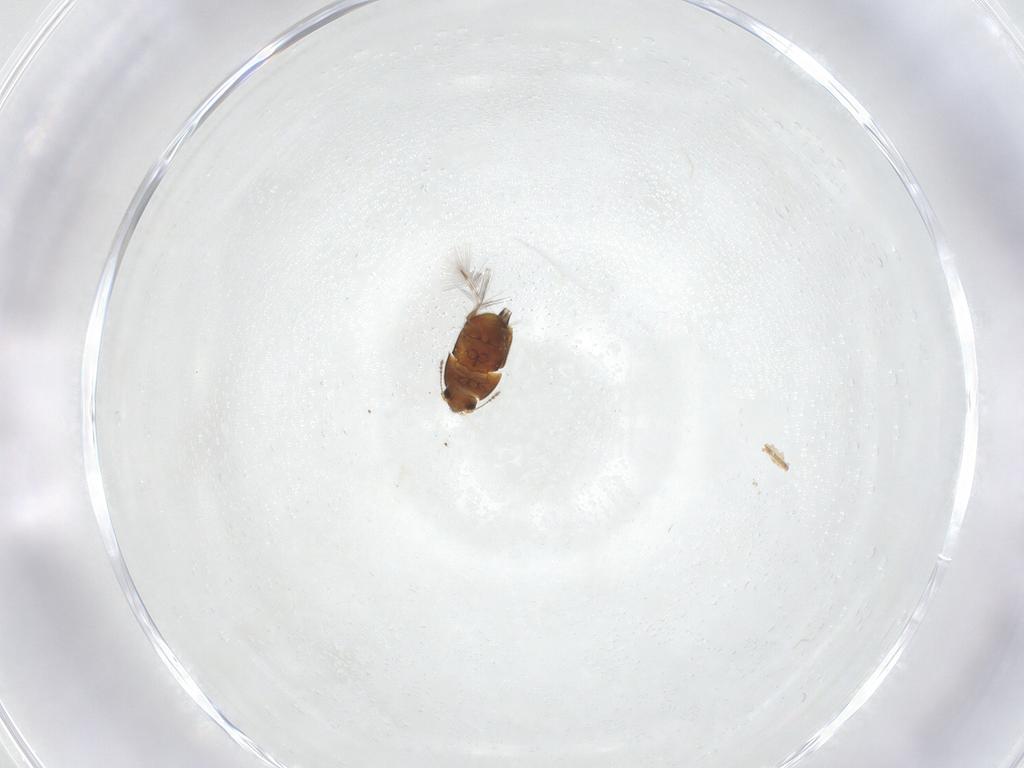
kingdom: Animalia
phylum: Arthropoda
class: Insecta
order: Coleoptera
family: Ptiliidae
